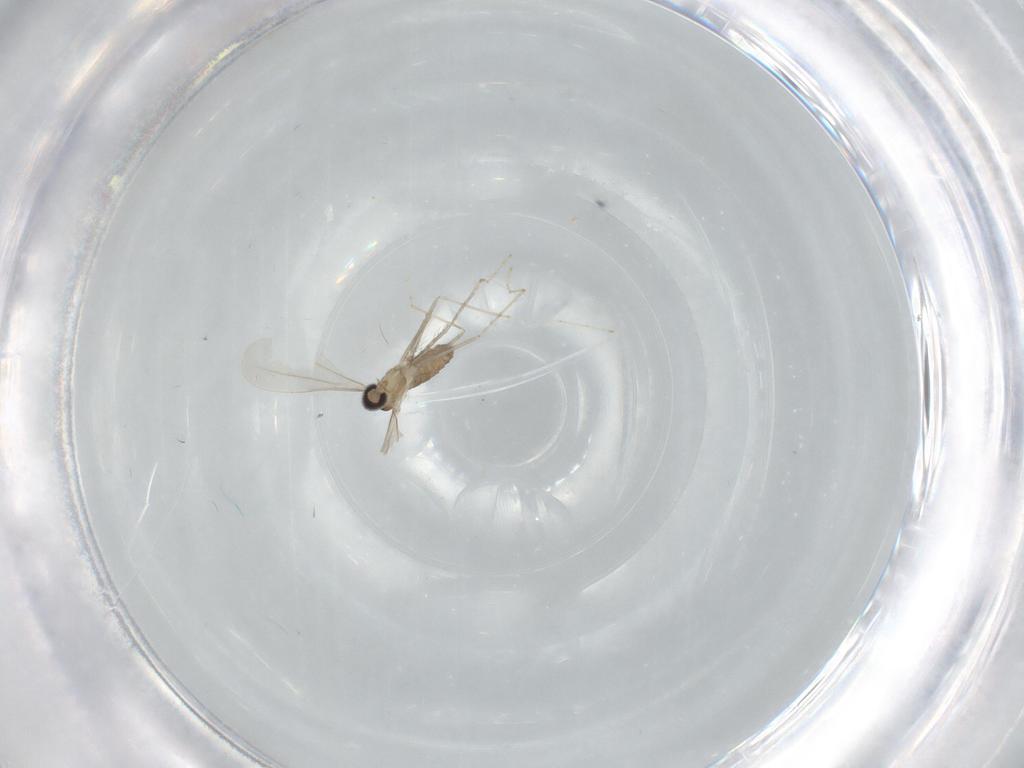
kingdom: Animalia
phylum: Arthropoda
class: Insecta
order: Diptera
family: Cecidomyiidae
